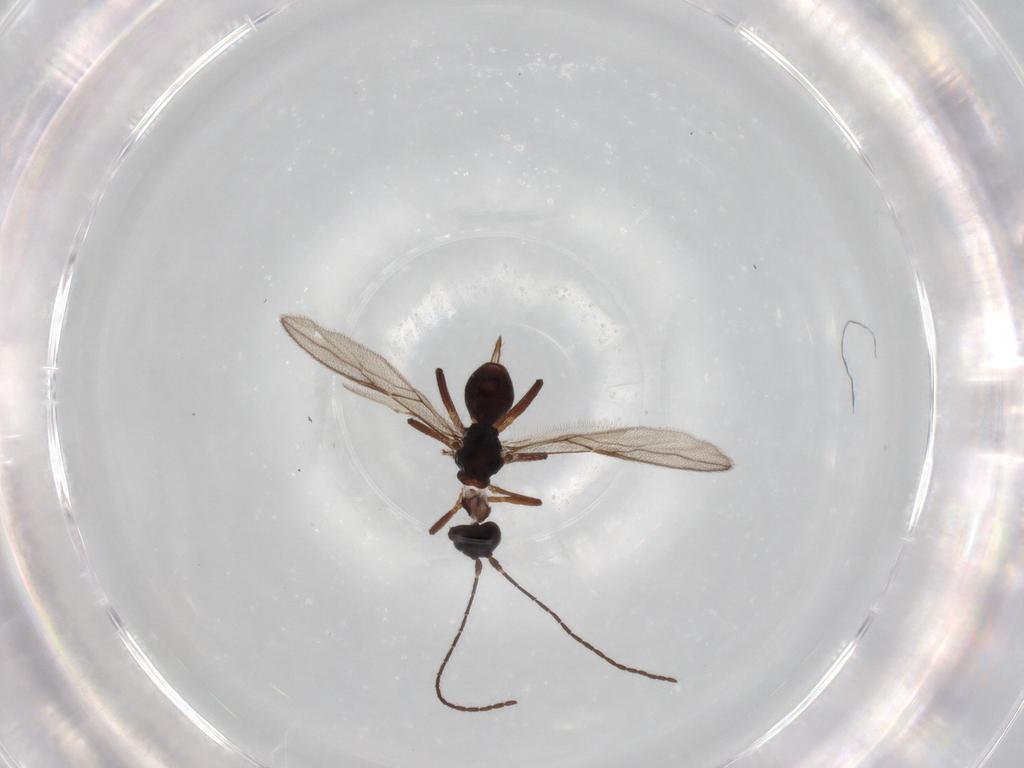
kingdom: Animalia
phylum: Arthropoda
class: Insecta
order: Hymenoptera
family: Braconidae
